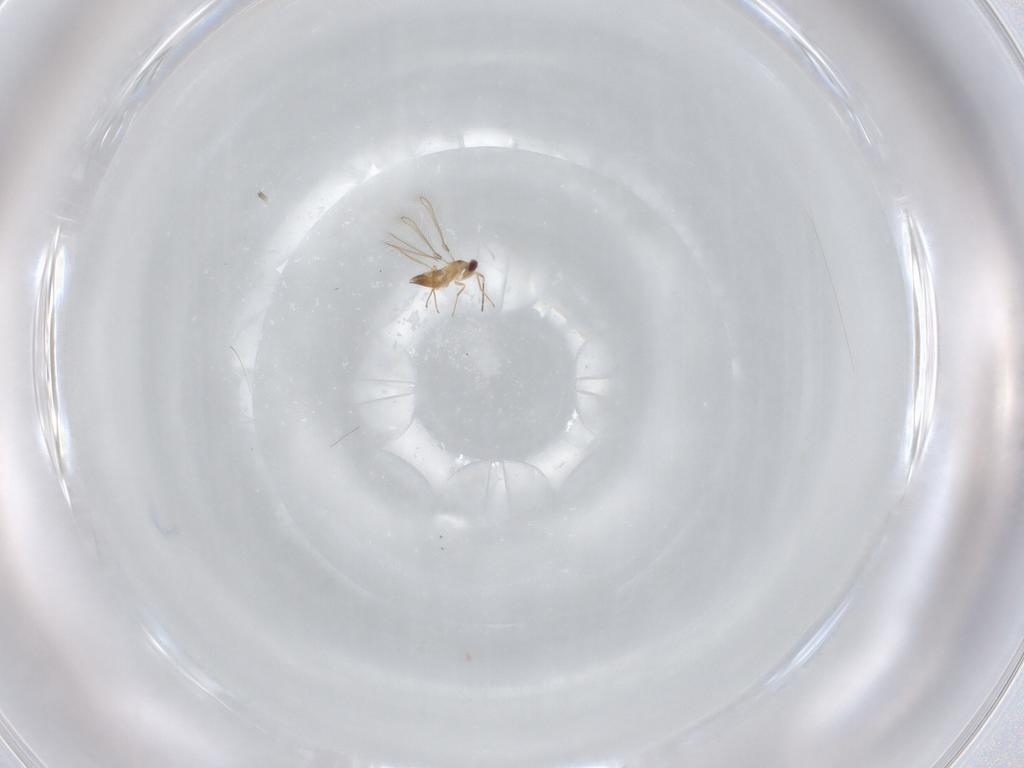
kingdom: Animalia
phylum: Arthropoda
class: Insecta
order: Hymenoptera
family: Mymaridae
